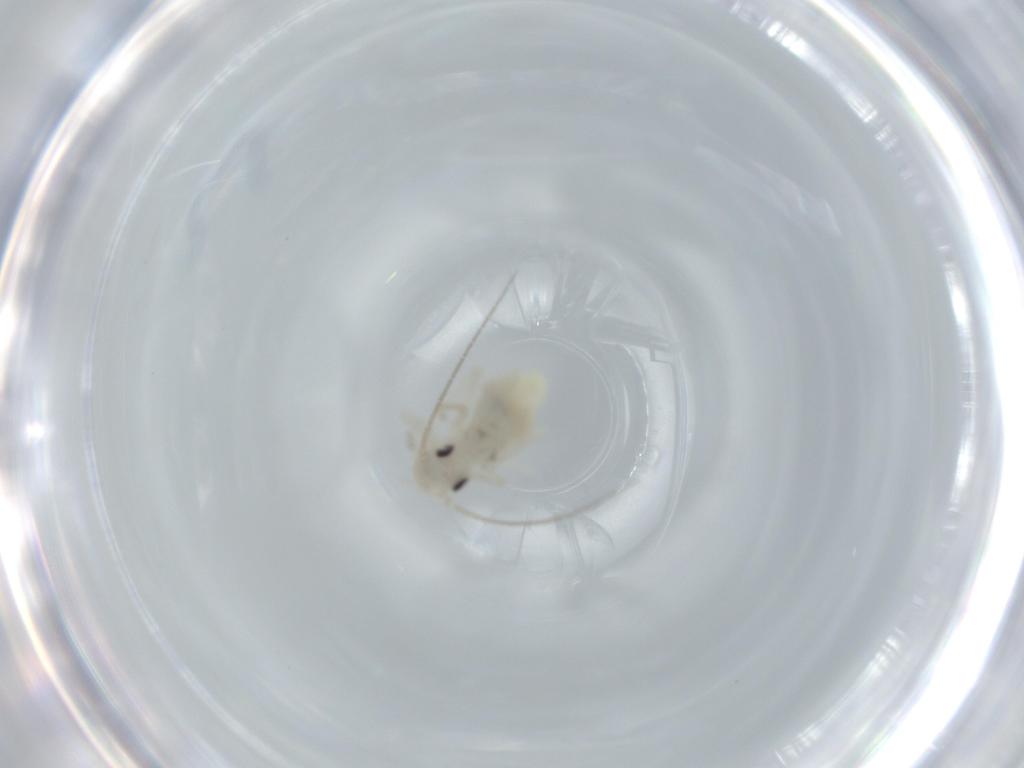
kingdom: Animalia
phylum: Arthropoda
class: Insecta
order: Psocodea
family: Caeciliusidae
